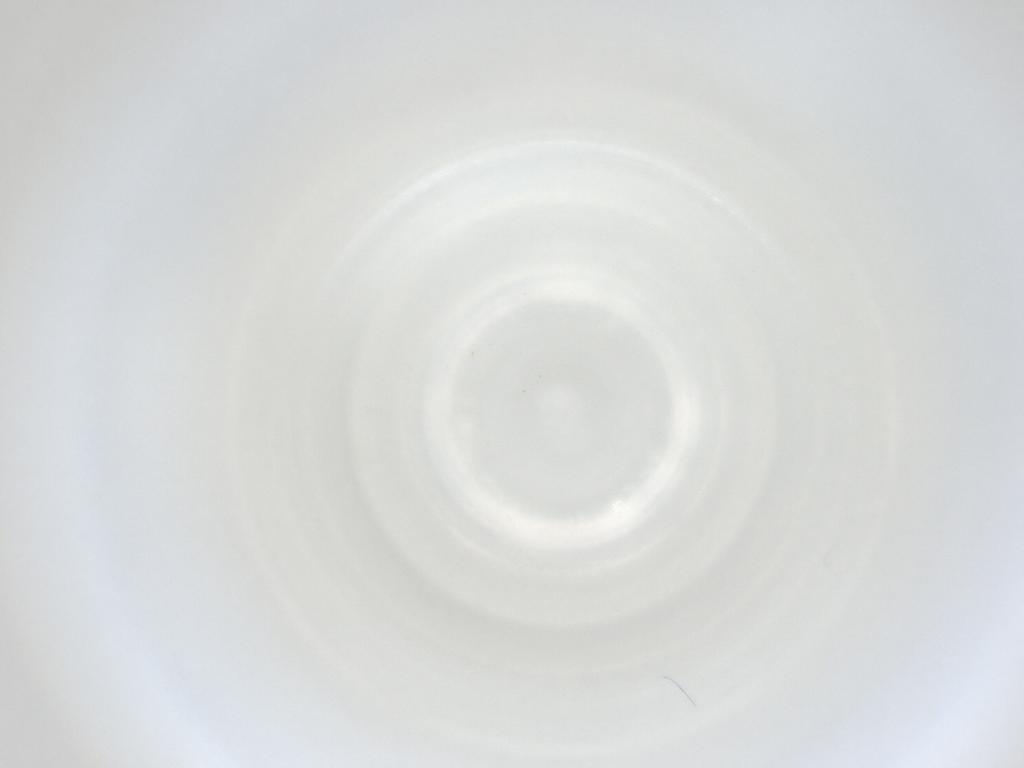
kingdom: Animalia
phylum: Arthropoda
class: Insecta
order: Diptera
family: Cecidomyiidae
